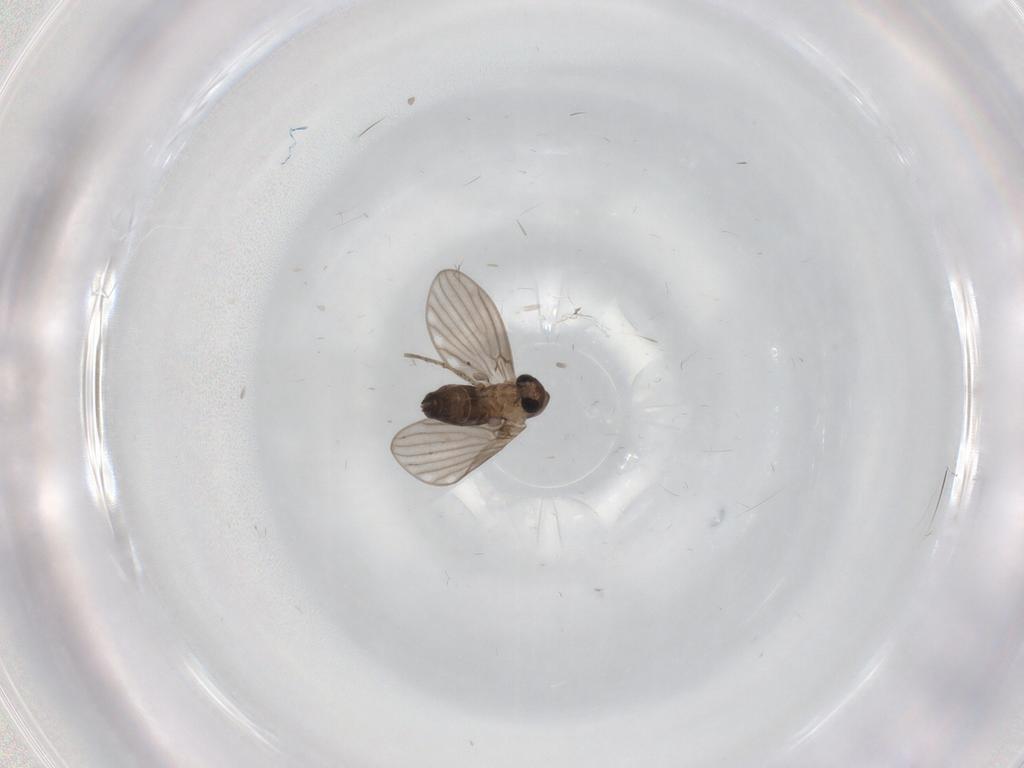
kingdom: Animalia
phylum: Arthropoda
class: Insecta
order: Diptera
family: Psychodidae
